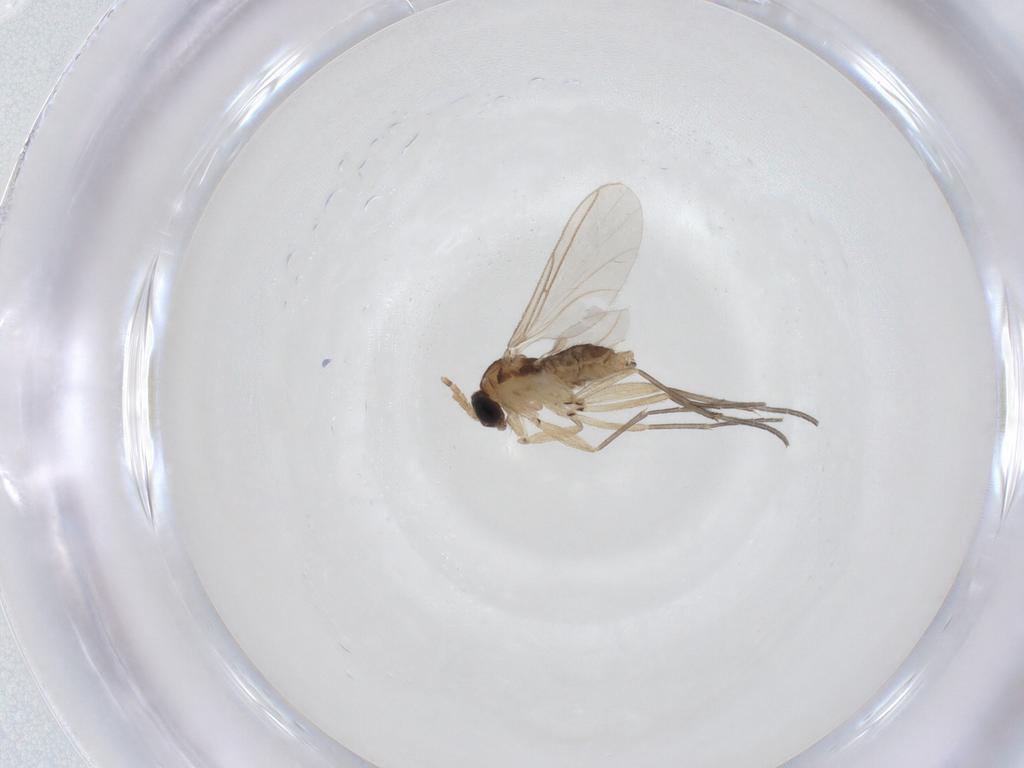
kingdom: Animalia
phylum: Arthropoda
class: Insecta
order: Diptera
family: Sciaridae
